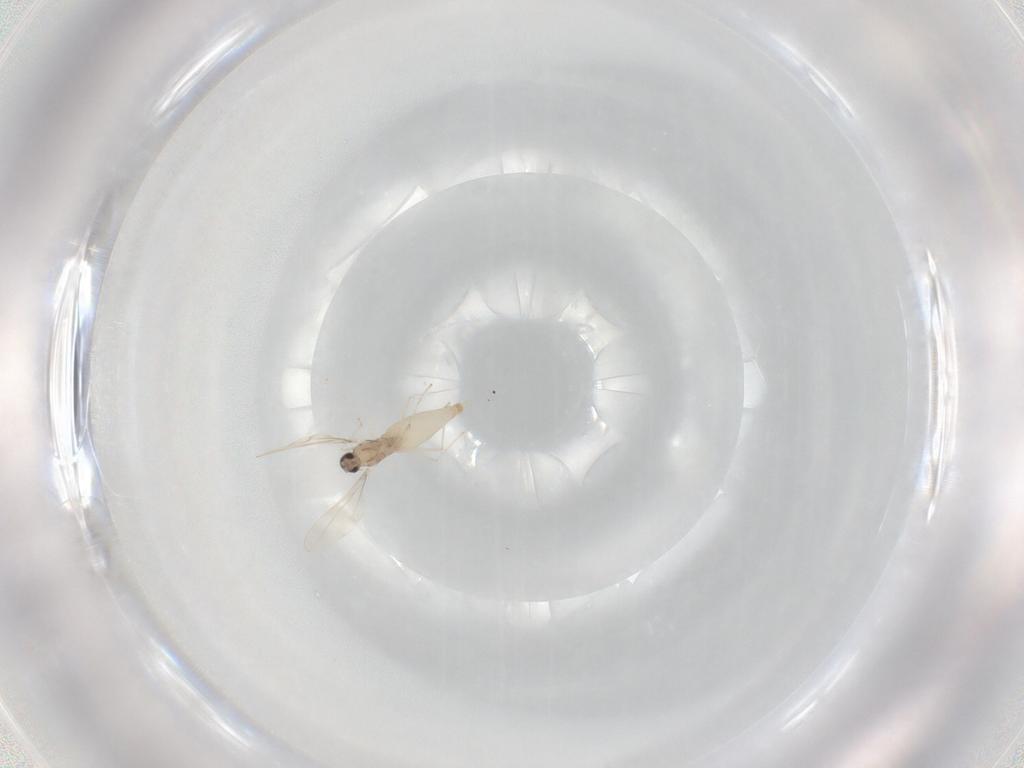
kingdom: Animalia
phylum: Arthropoda
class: Insecta
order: Diptera
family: Cecidomyiidae
